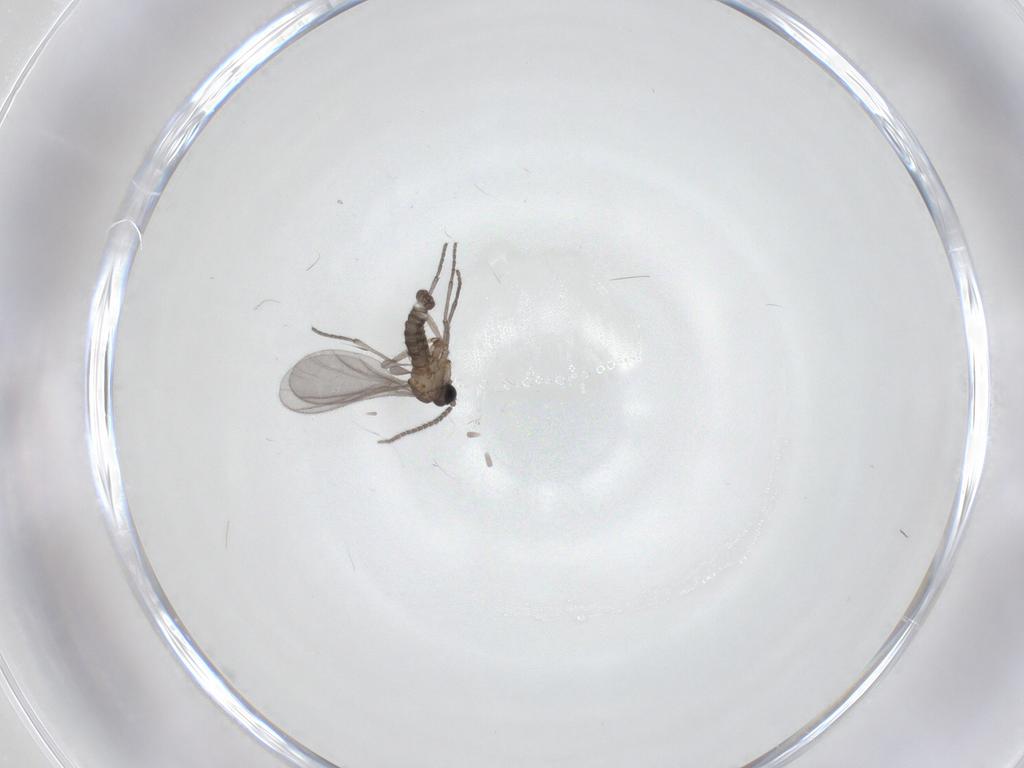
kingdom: Animalia
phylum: Arthropoda
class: Insecta
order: Diptera
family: Sciaridae
